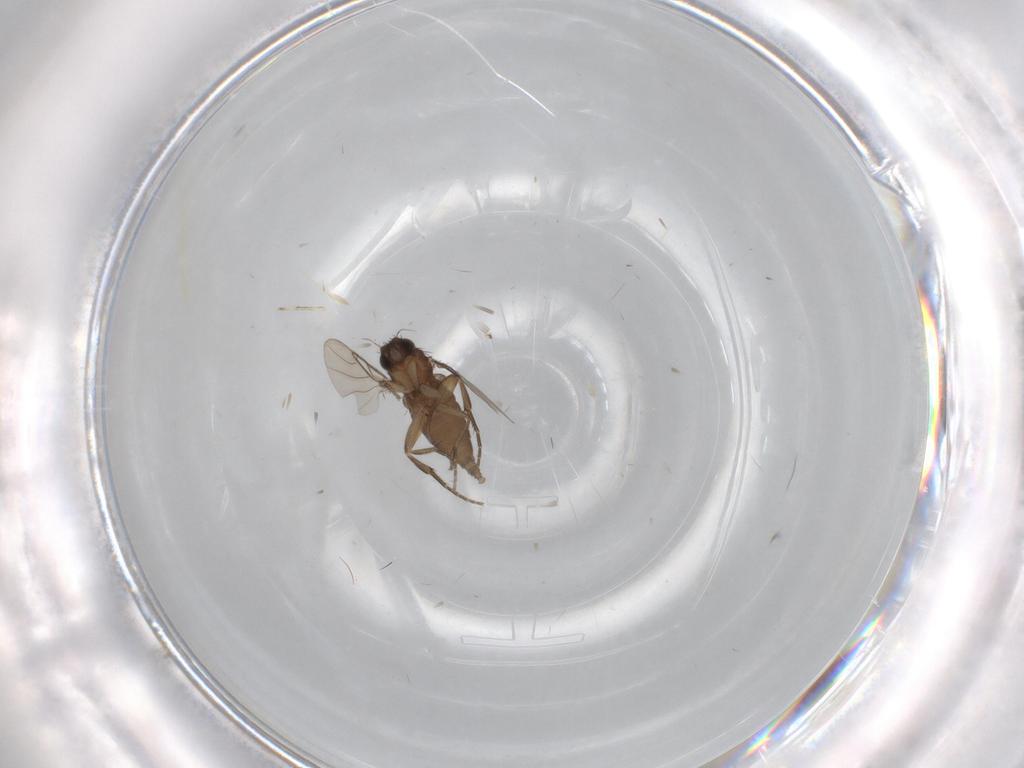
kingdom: Animalia
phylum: Arthropoda
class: Insecta
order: Diptera
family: Phoridae
